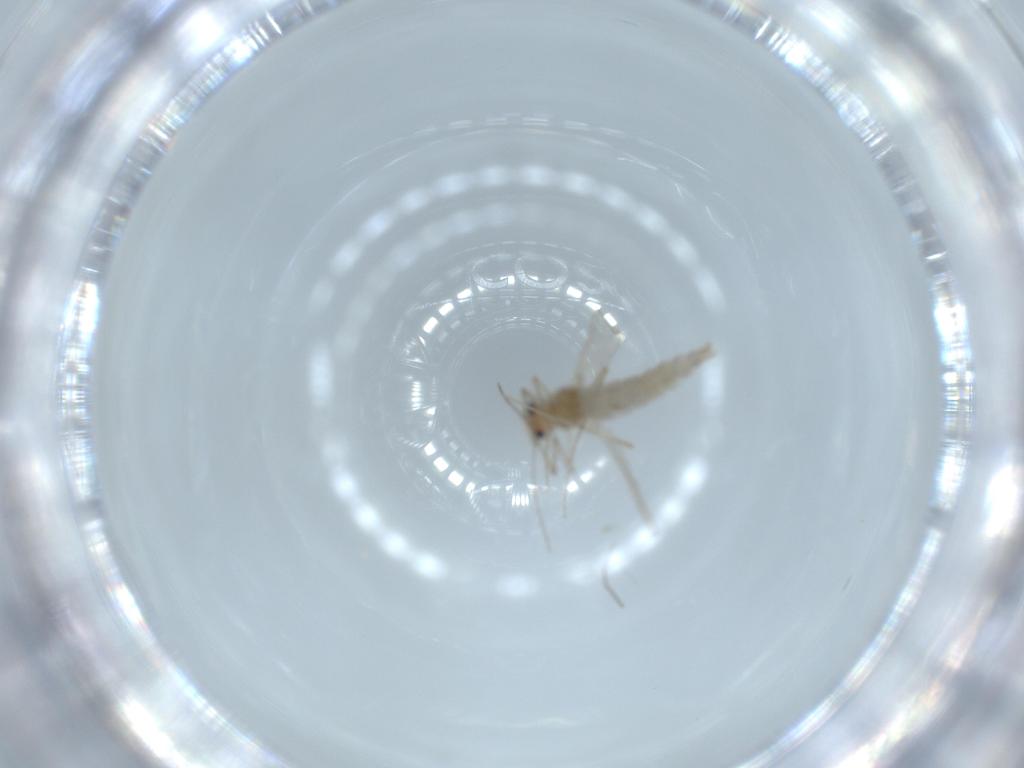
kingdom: Animalia
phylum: Arthropoda
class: Insecta
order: Diptera
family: Chironomidae
